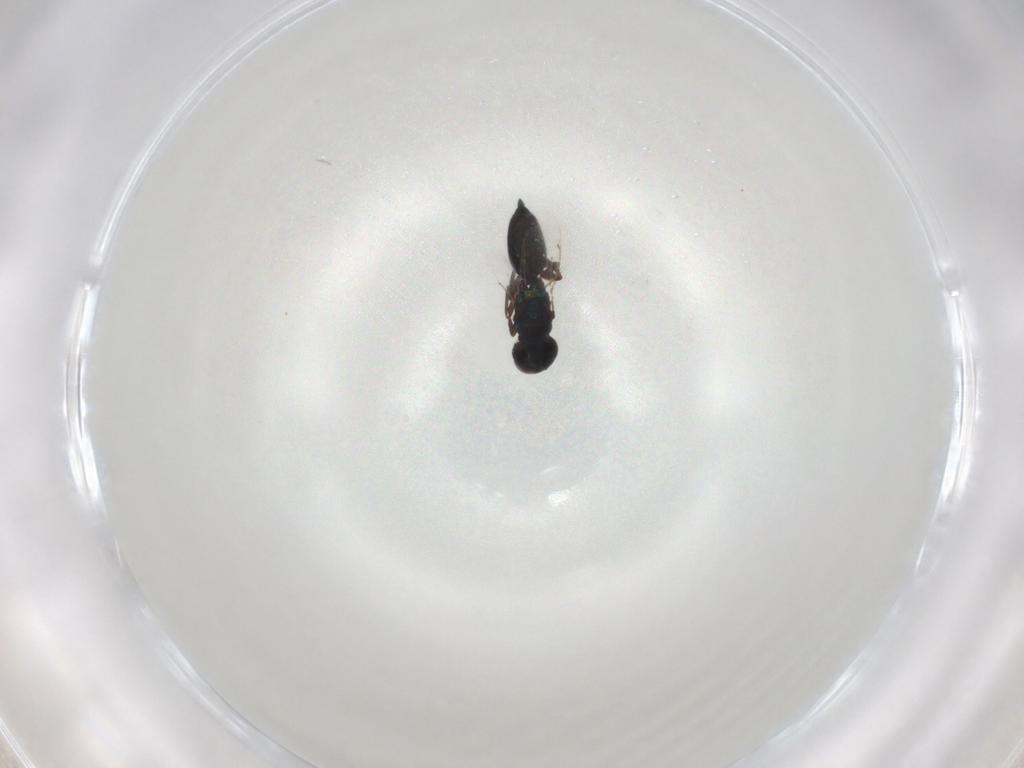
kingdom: Animalia
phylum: Arthropoda
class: Insecta
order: Hymenoptera
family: Eulophidae
